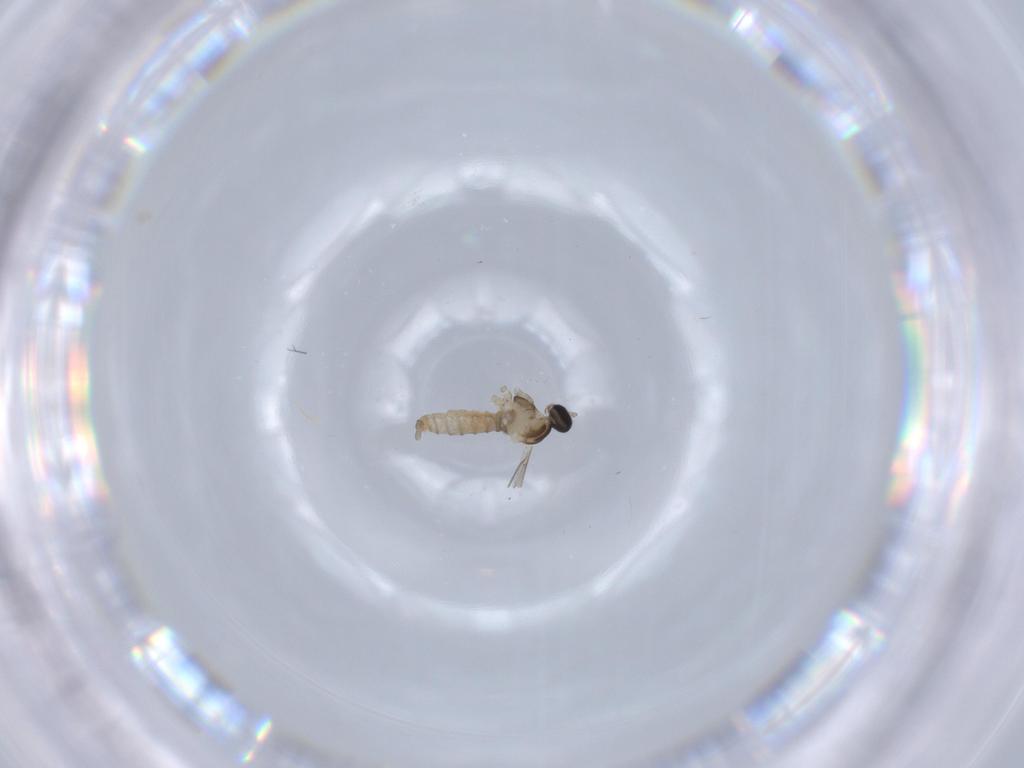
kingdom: Animalia
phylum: Arthropoda
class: Insecta
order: Diptera
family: Cecidomyiidae
